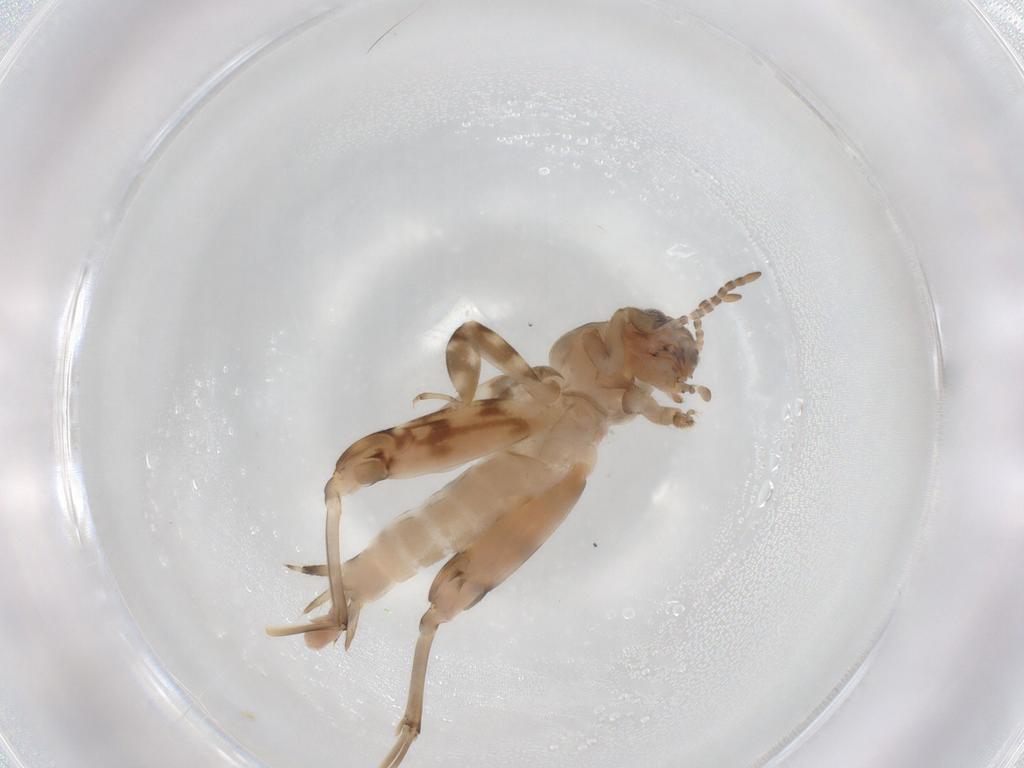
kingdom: Animalia
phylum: Arthropoda
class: Insecta
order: Orthoptera
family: Tridactylidae
